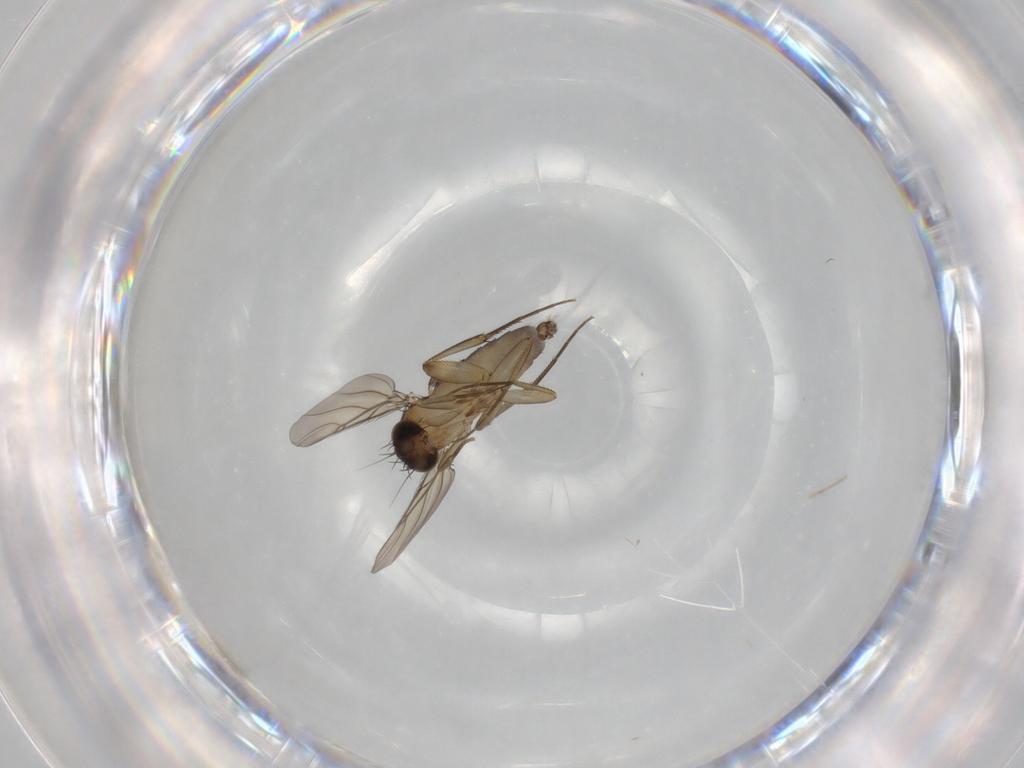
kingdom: Animalia
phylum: Arthropoda
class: Insecta
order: Diptera
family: Phoridae
